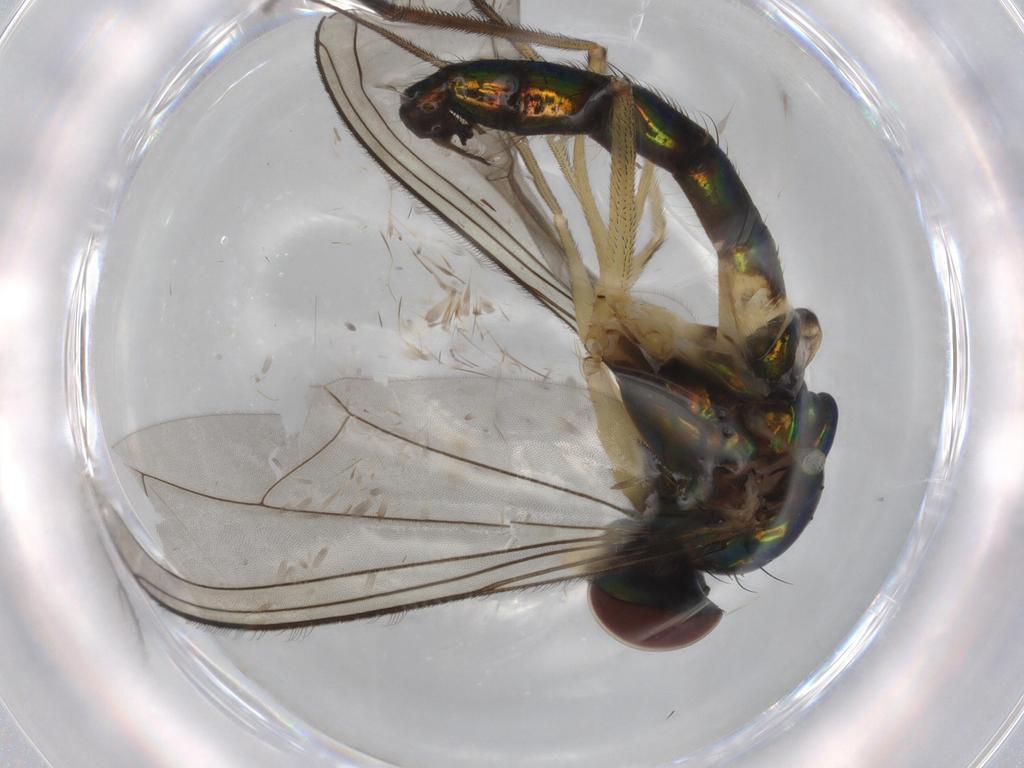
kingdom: Animalia
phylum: Arthropoda
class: Insecta
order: Diptera
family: Dolichopodidae
